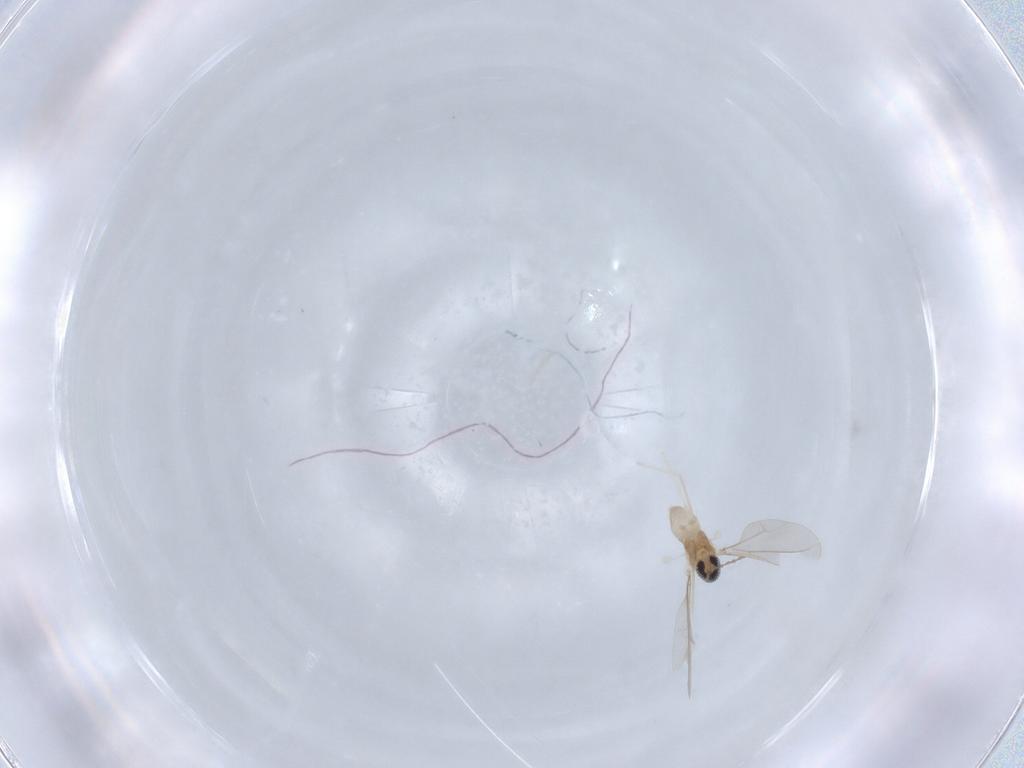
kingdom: Animalia
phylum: Arthropoda
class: Insecta
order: Diptera
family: Cecidomyiidae
